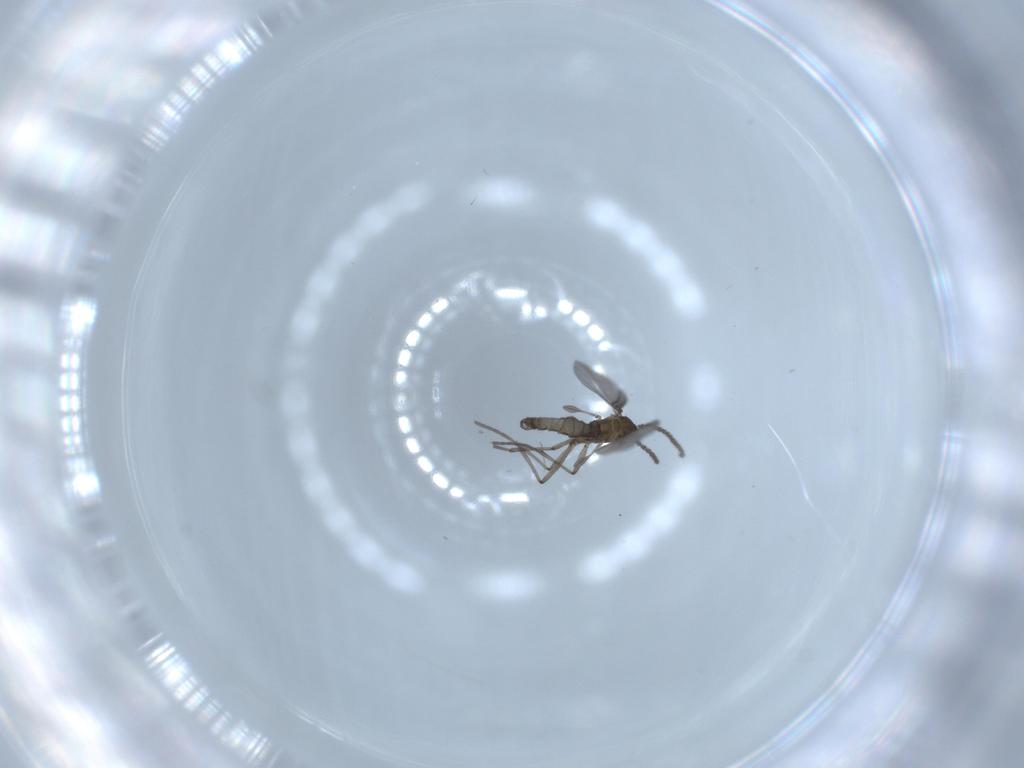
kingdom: Animalia
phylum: Arthropoda
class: Insecta
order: Diptera
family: Sciaridae
